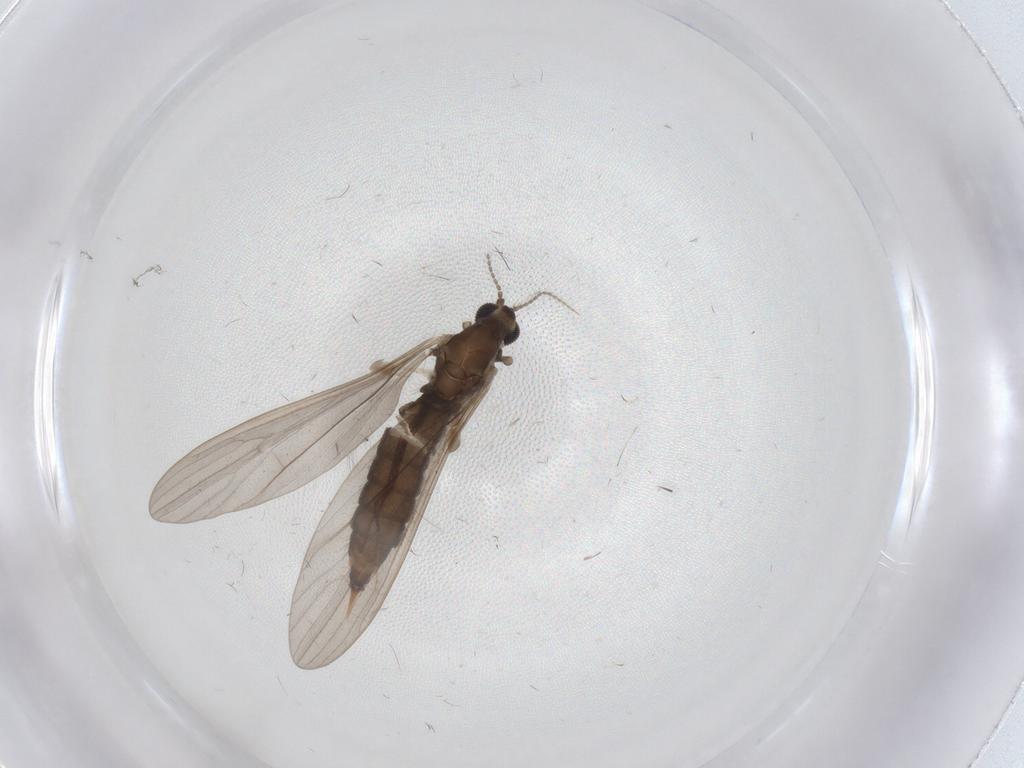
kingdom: Animalia
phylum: Arthropoda
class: Insecta
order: Diptera
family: Limoniidae
